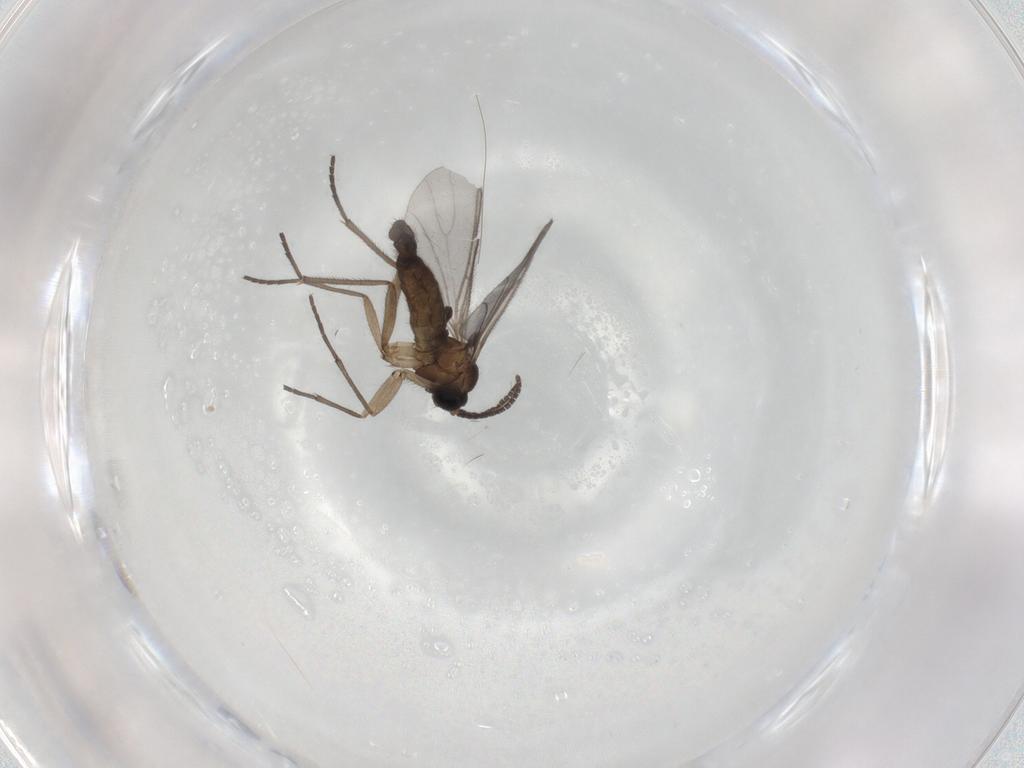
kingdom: Animalia
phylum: Arthropoda
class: Insecta
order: Diptera
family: Sciaridae
